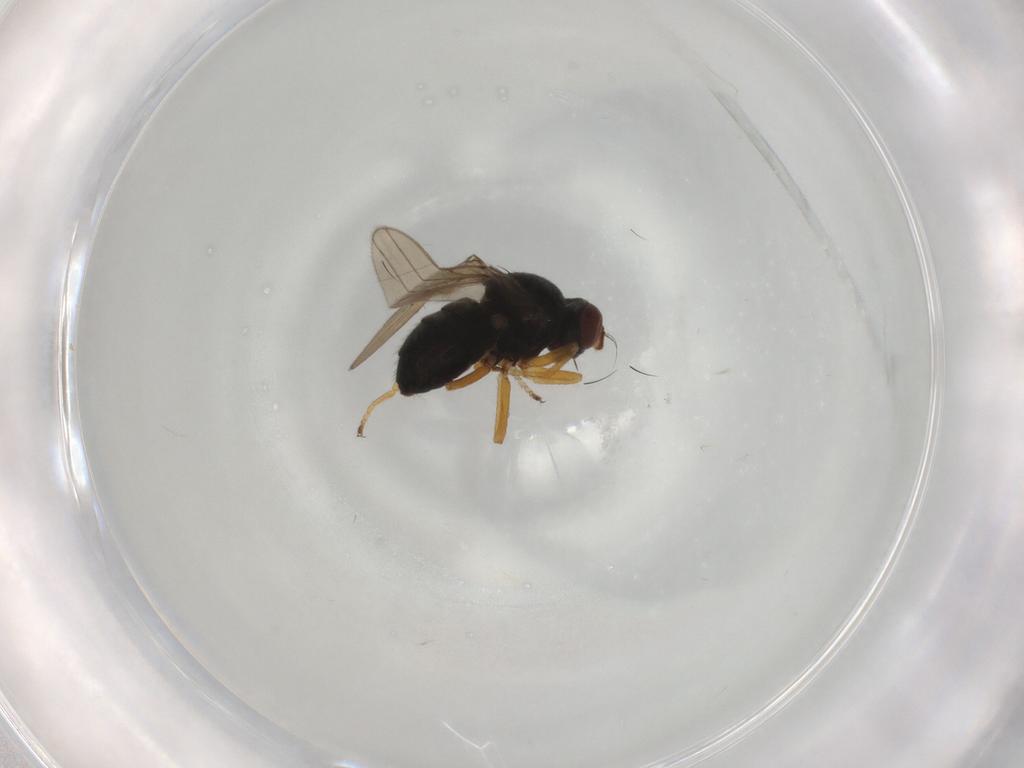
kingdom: Animalia
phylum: Arthropoda
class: Insecta
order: Diptera
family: Ephydridae
